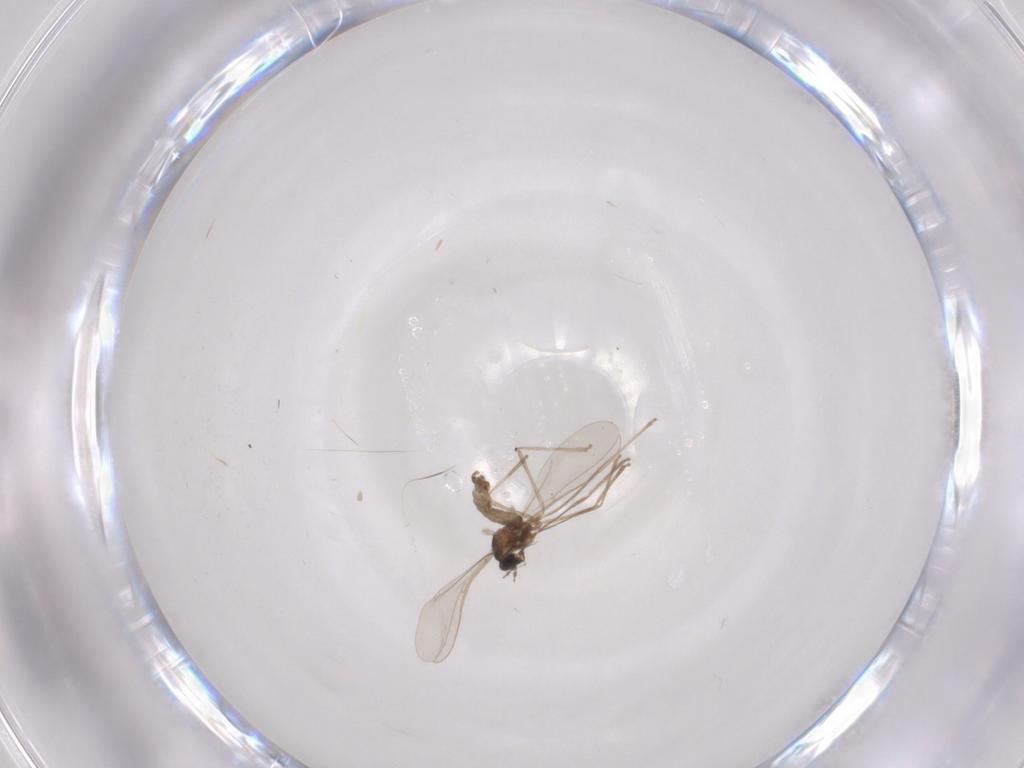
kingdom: Animalia
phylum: Arthropoda
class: Insecta
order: Diptera
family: Cecidomyiidae
